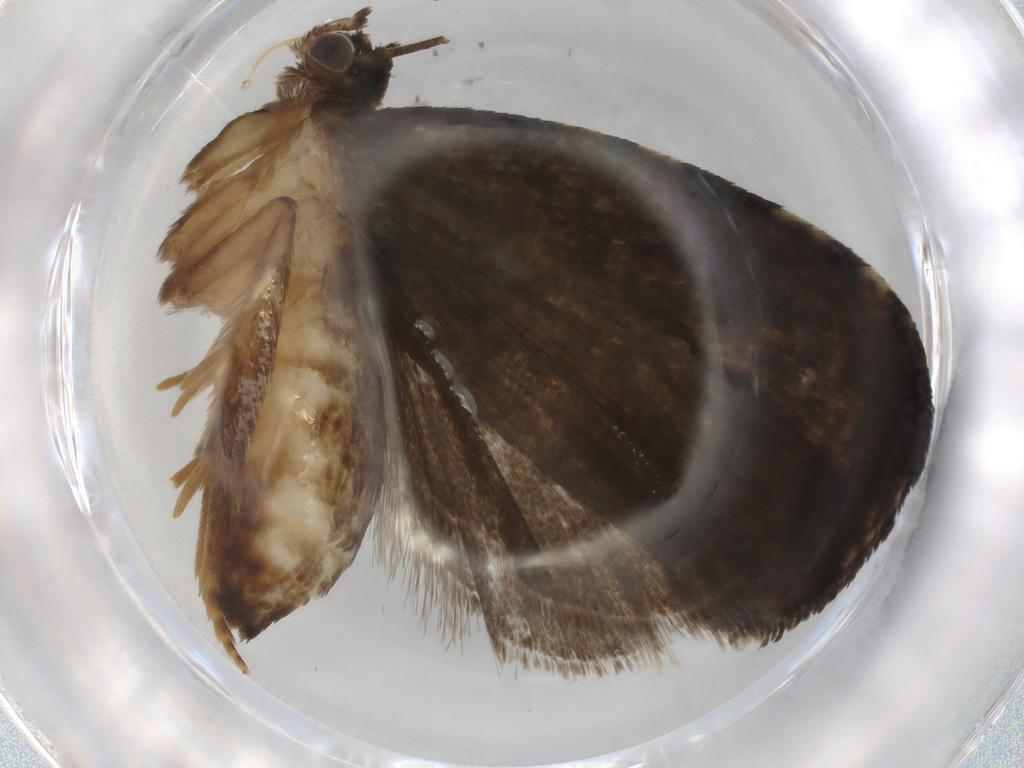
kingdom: Animalia
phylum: Arthropoda
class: Insecta
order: Lepidoptera
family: Tortricidae
